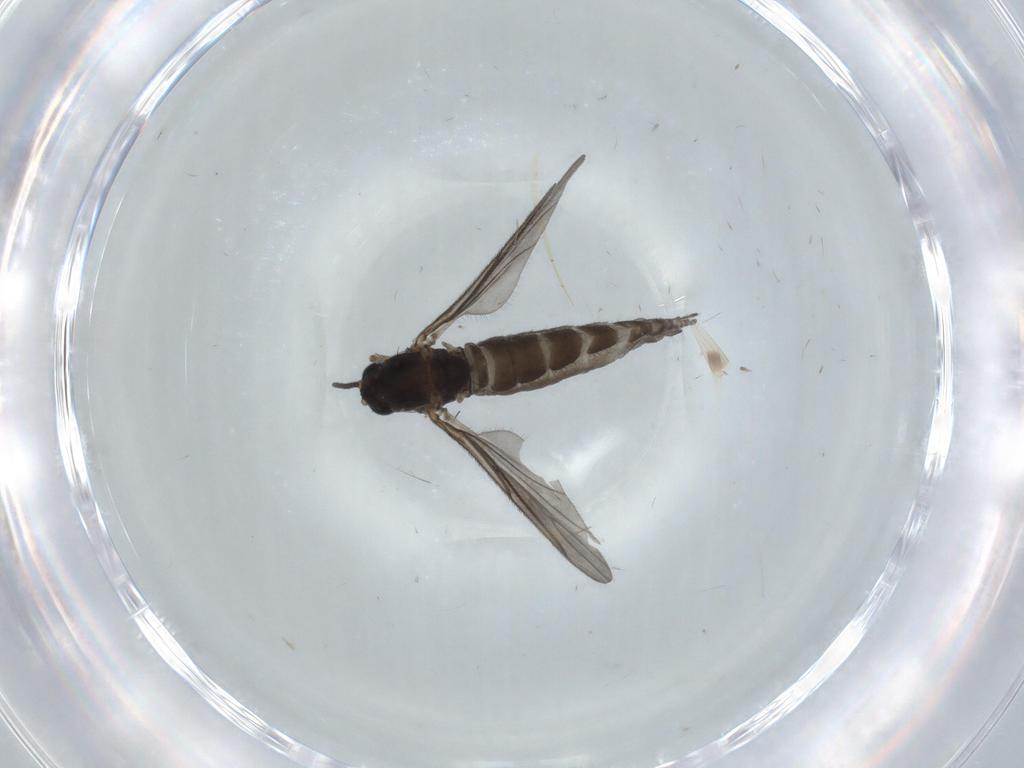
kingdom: Animalia
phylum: Arthropoda
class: Insecta
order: Diptera
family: Sciaridae
